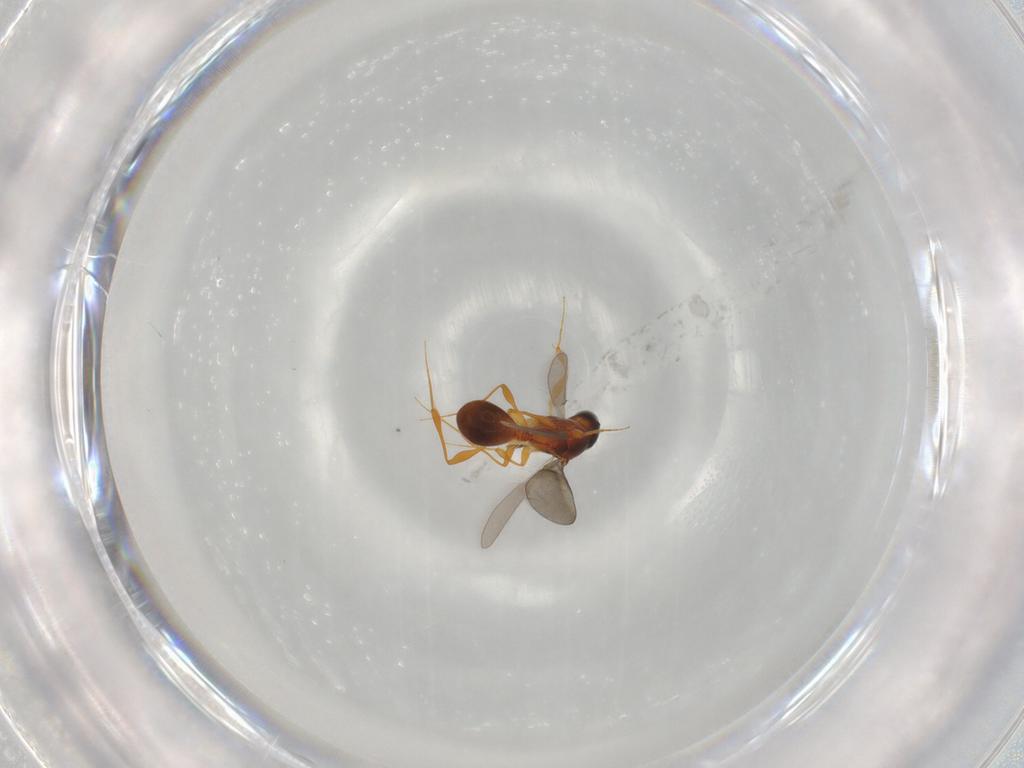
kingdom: Animalia
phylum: Arthropoda
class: Insecta
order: Hymenoptera
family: Platygastridae
